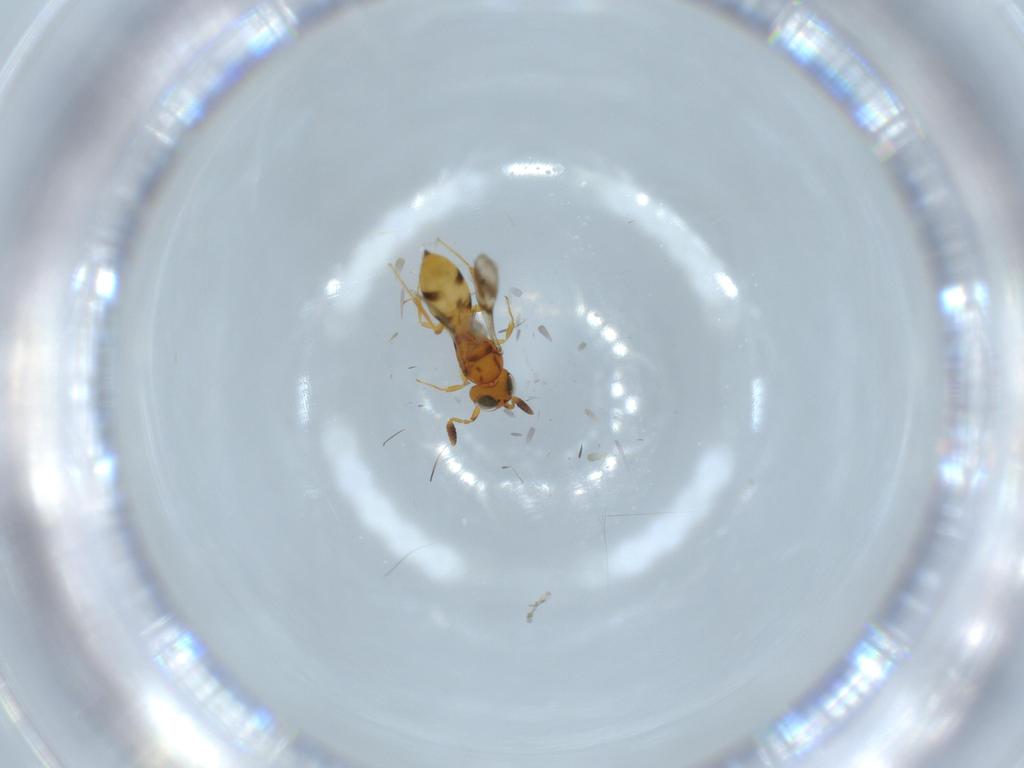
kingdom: Animalia
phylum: Arthropoda
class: Insecta
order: Hymenoptera
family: Scelionidae
